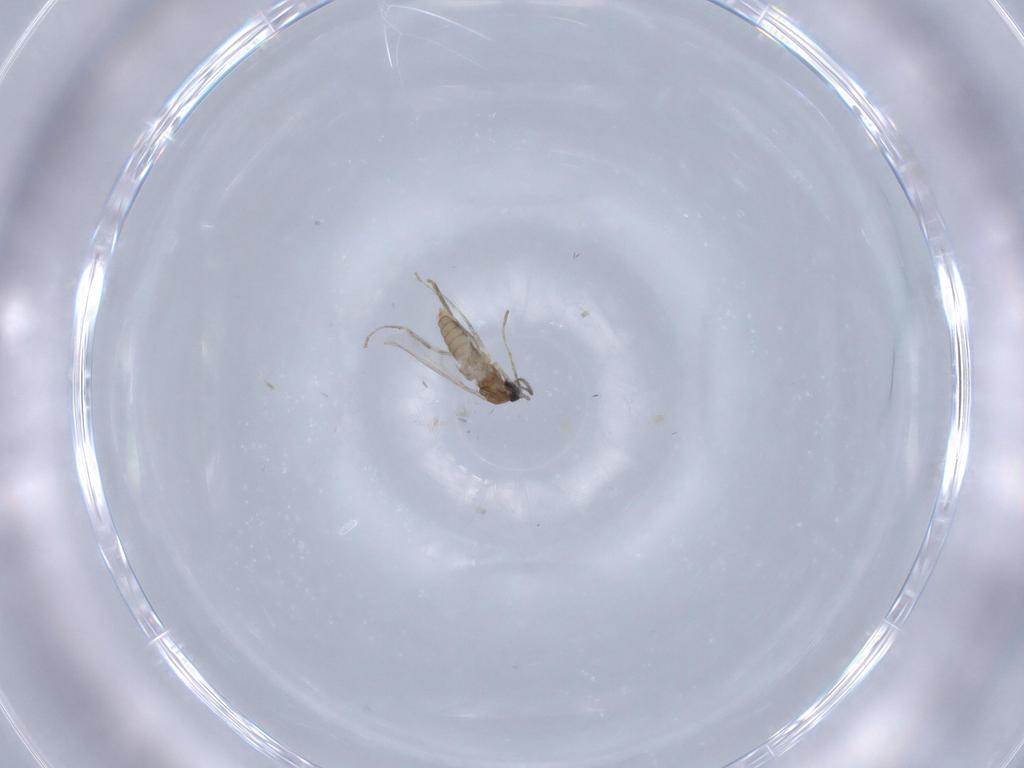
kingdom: Animalia
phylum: Arthropoda
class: Insecta
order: Diptera
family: Cecidomyiidae
